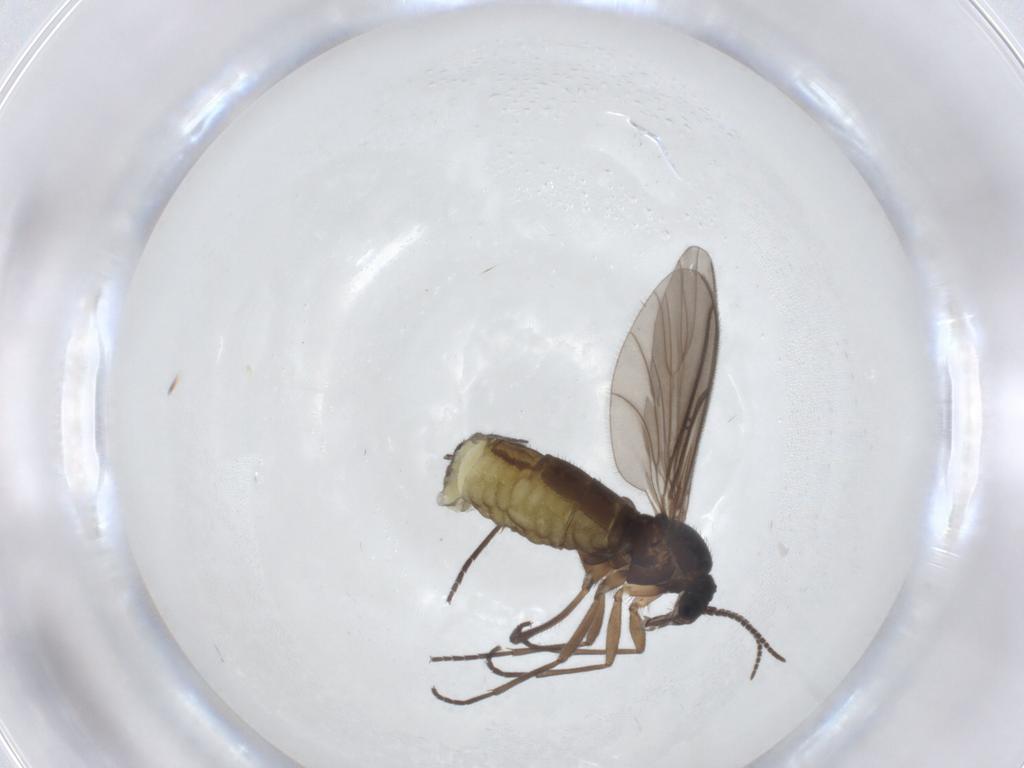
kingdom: Animalia
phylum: Arthropoda
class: Insecta
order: Diptera
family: Sciaridae
